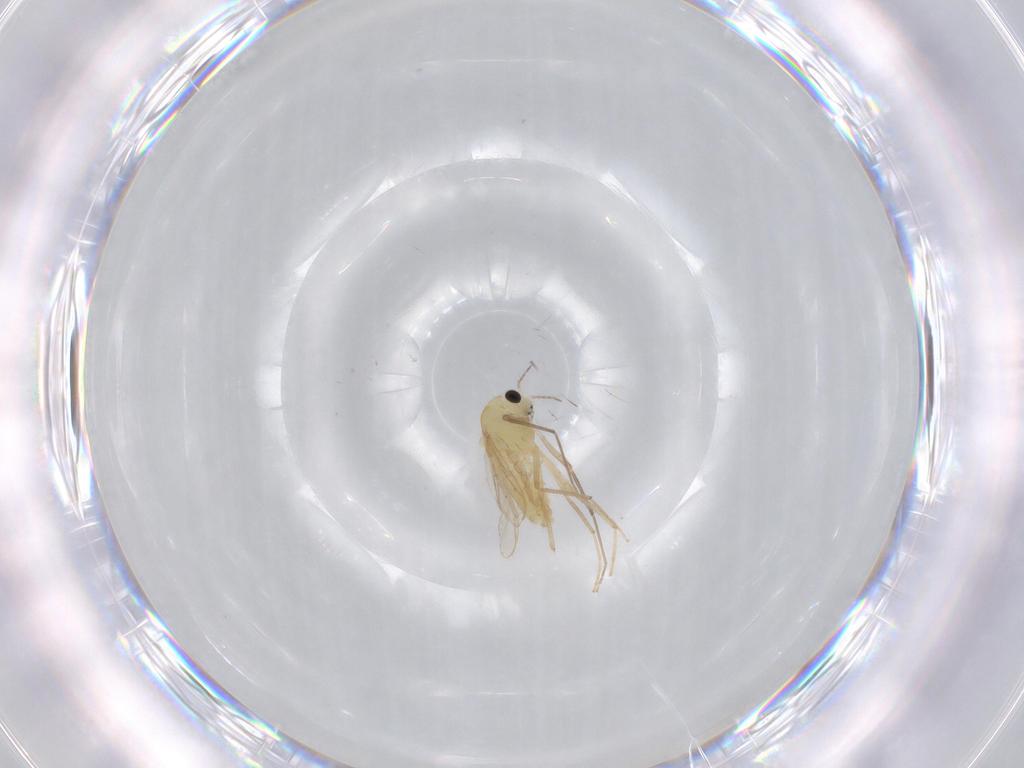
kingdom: Animalia
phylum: Arthropoda
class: Insecta
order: Diptera
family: Chironomidae
